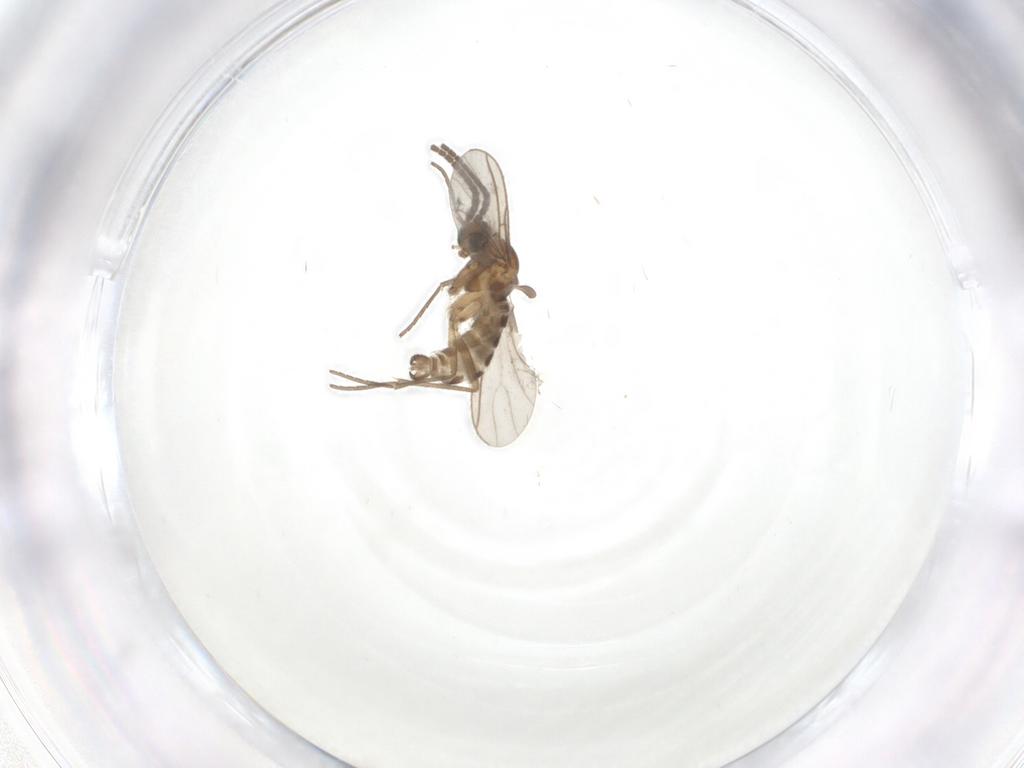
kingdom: Animalia
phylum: Arthropoda
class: Insecta
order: Diptera
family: Sciaridae
